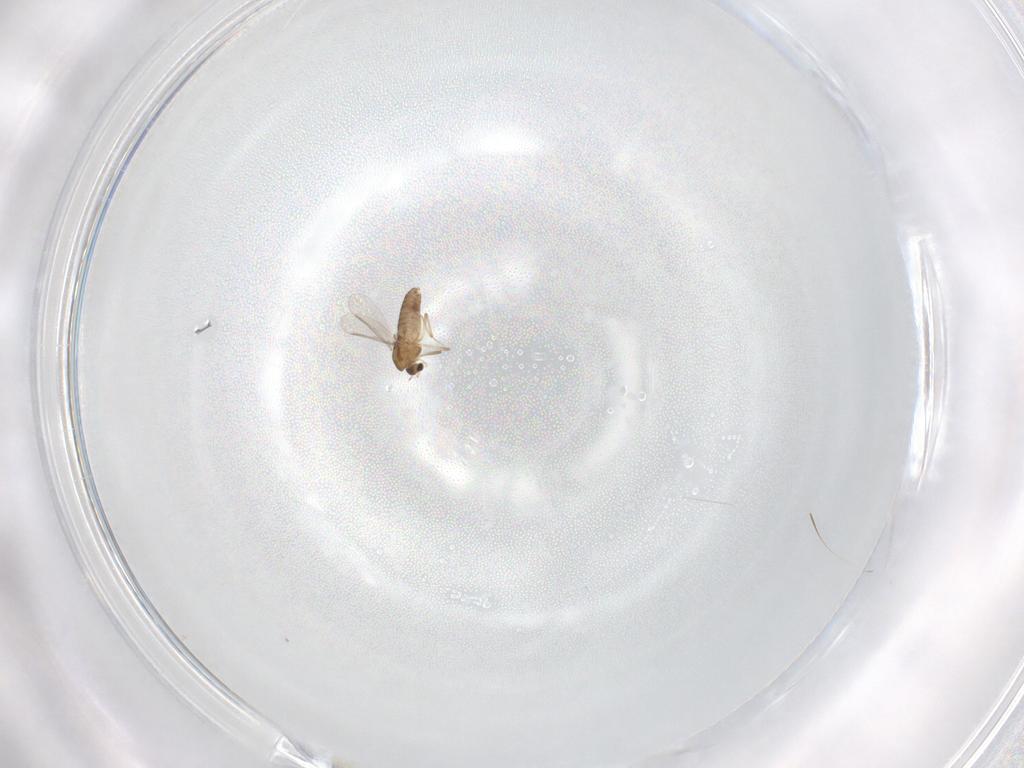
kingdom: Animalia
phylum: Arthropoda
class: Insecta
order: Diptera
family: Chironomidae
